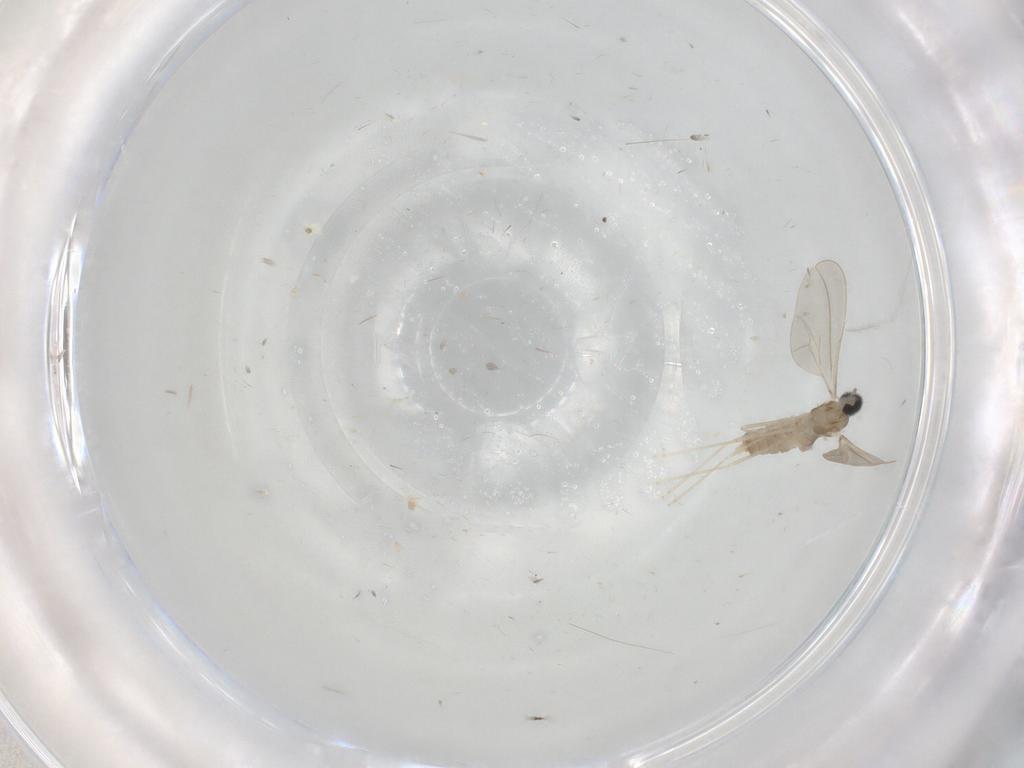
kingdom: Animalia
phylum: Arthropoda
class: Insecta
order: Diptera
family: Cecidomyiidae
